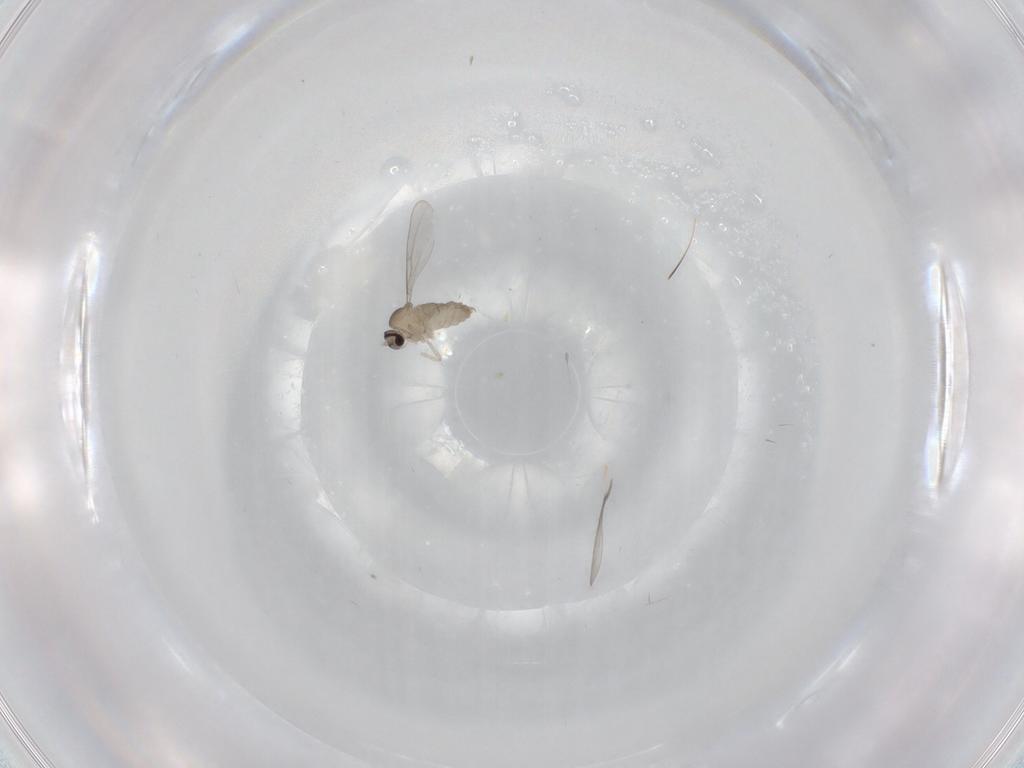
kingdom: Animalia
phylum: Arthropoda
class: Insecta
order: Diptera
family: Cecidomyiidae
